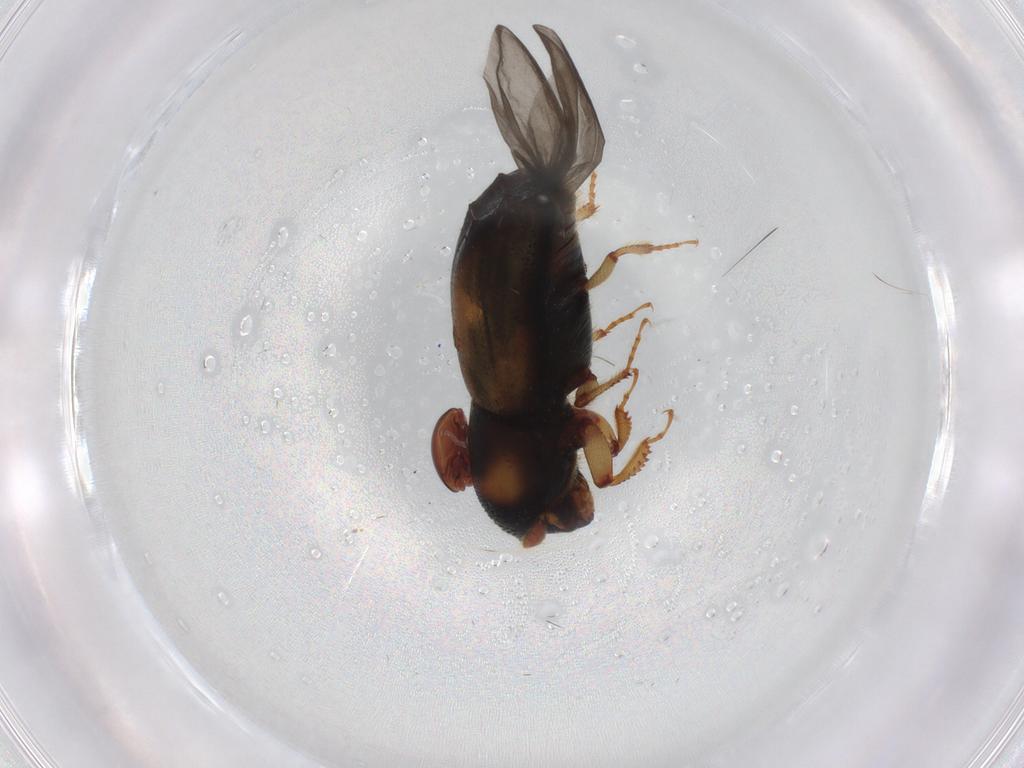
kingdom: Animalia
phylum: Arthropoda
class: Insecta
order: Coleoptera
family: Curculionidae
